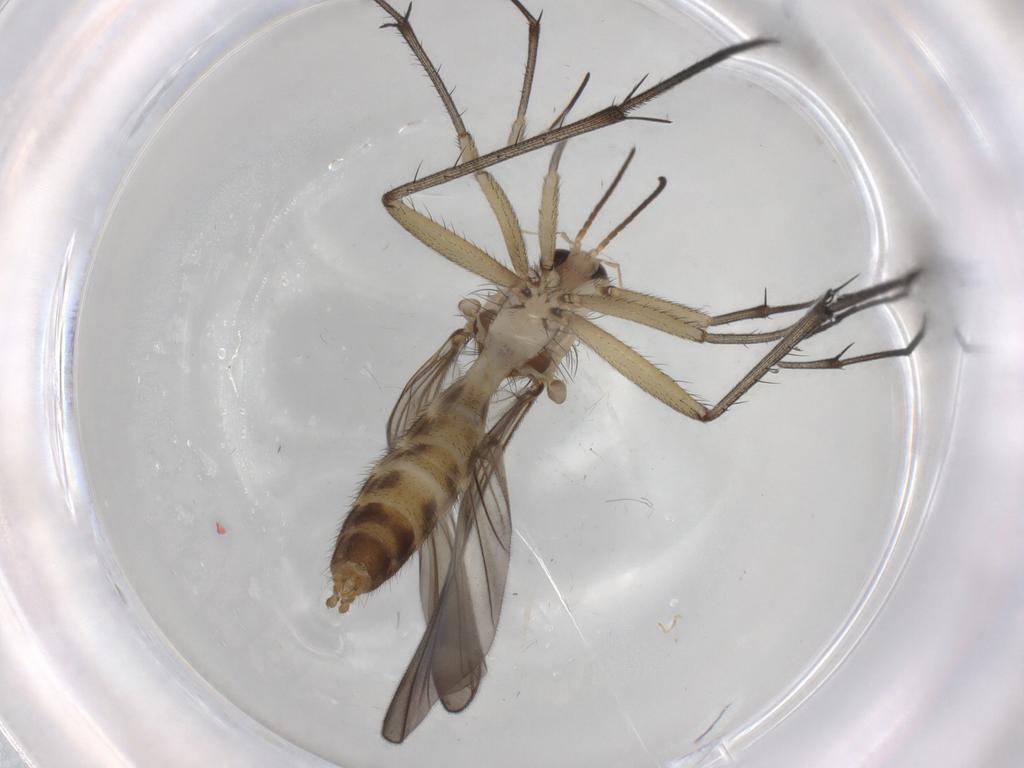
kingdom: Animalia
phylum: Arthropoda
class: Insecta
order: Diptera
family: Mycetophilidae
